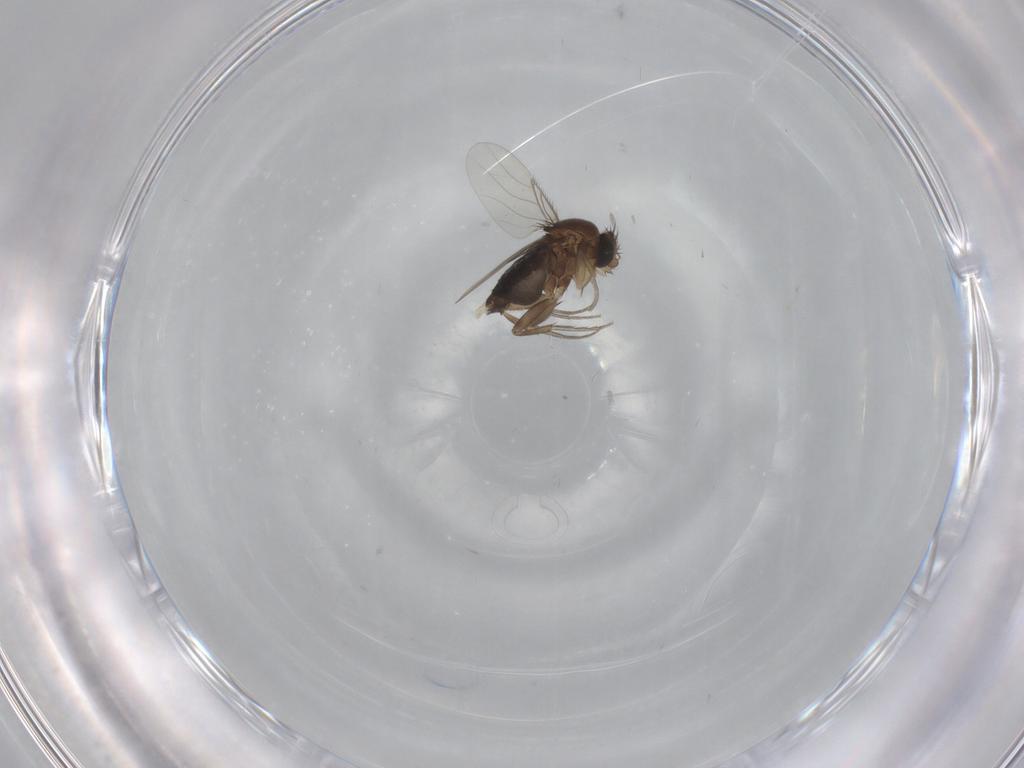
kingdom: Animalia
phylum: Arthropoda
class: Insecta
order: Diptera
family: Phoridae
